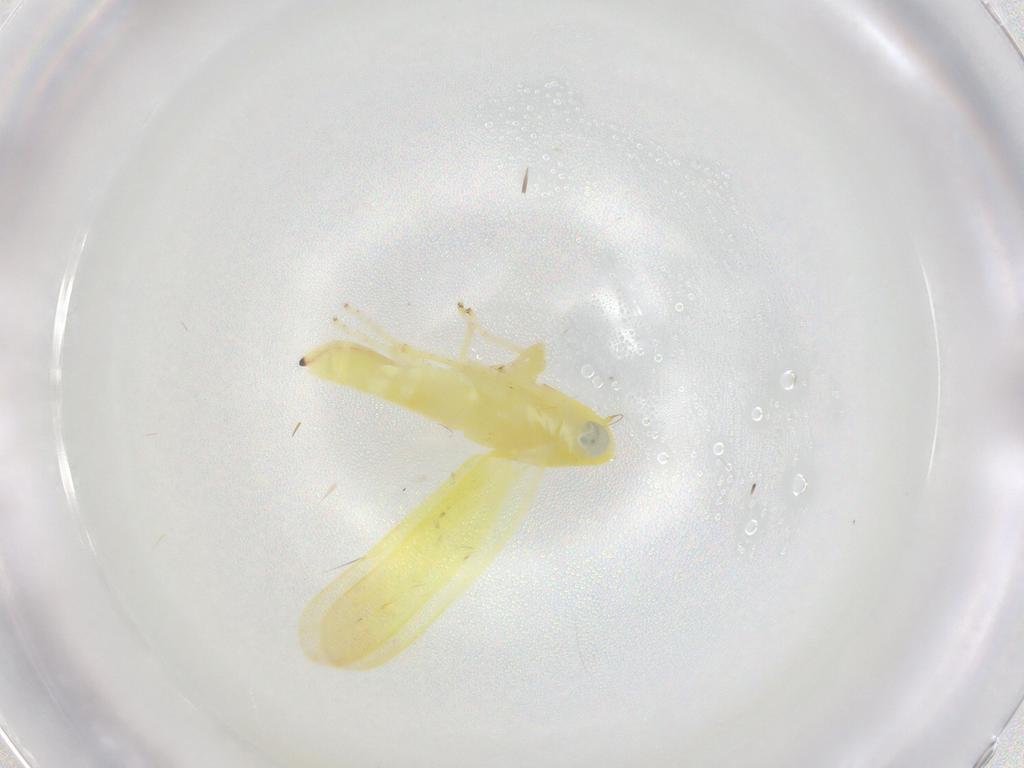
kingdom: Animalia
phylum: Arthropoda
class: Insecta
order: Hemiptera
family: Cicadellidae
